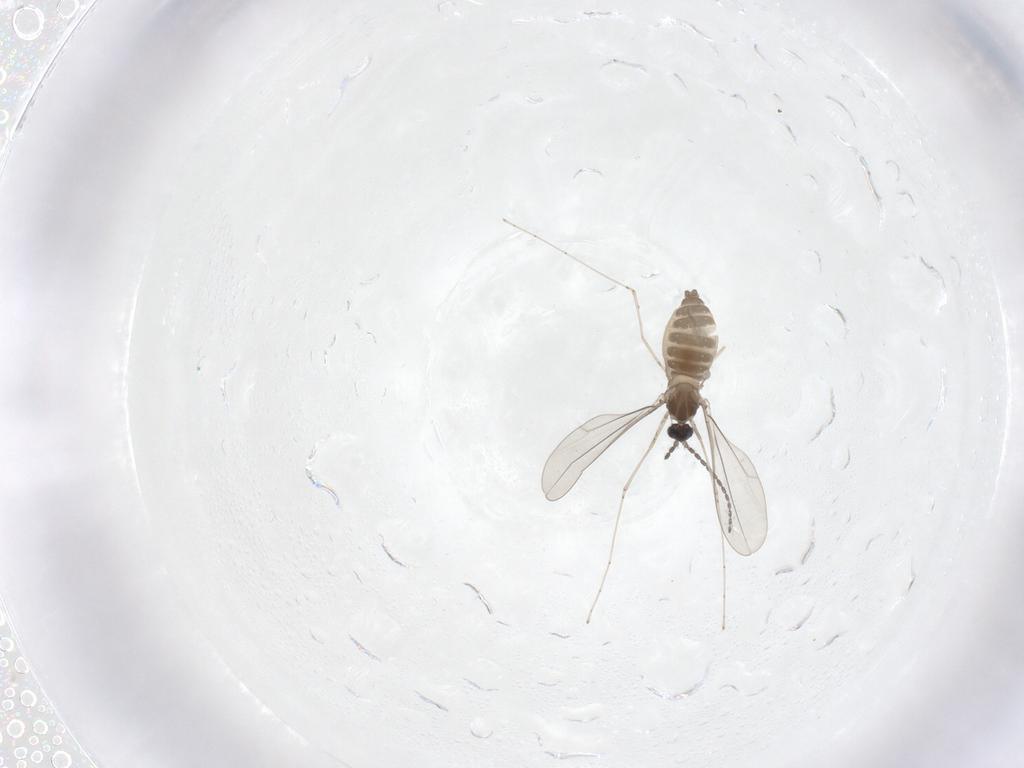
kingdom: Animalia
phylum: Arthropoda
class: Insecta
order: Diptera
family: Cecidomyiidae
